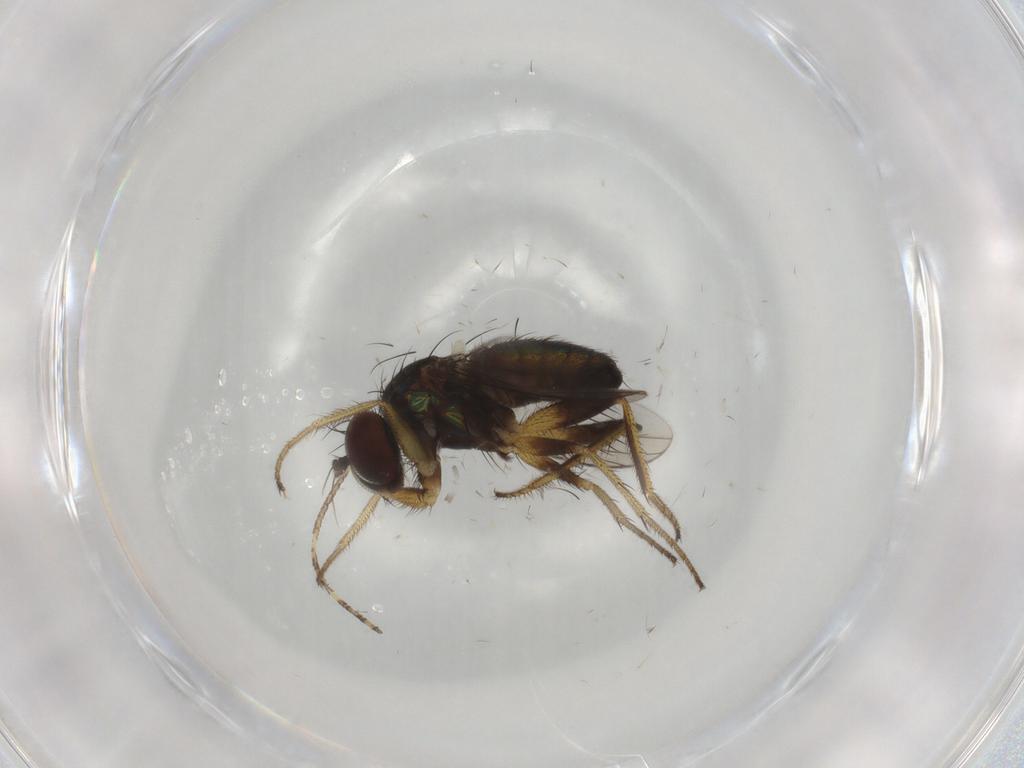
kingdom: Animalia
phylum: Arthropoda
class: Insecta
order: Diptera
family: Dolichopodidae
